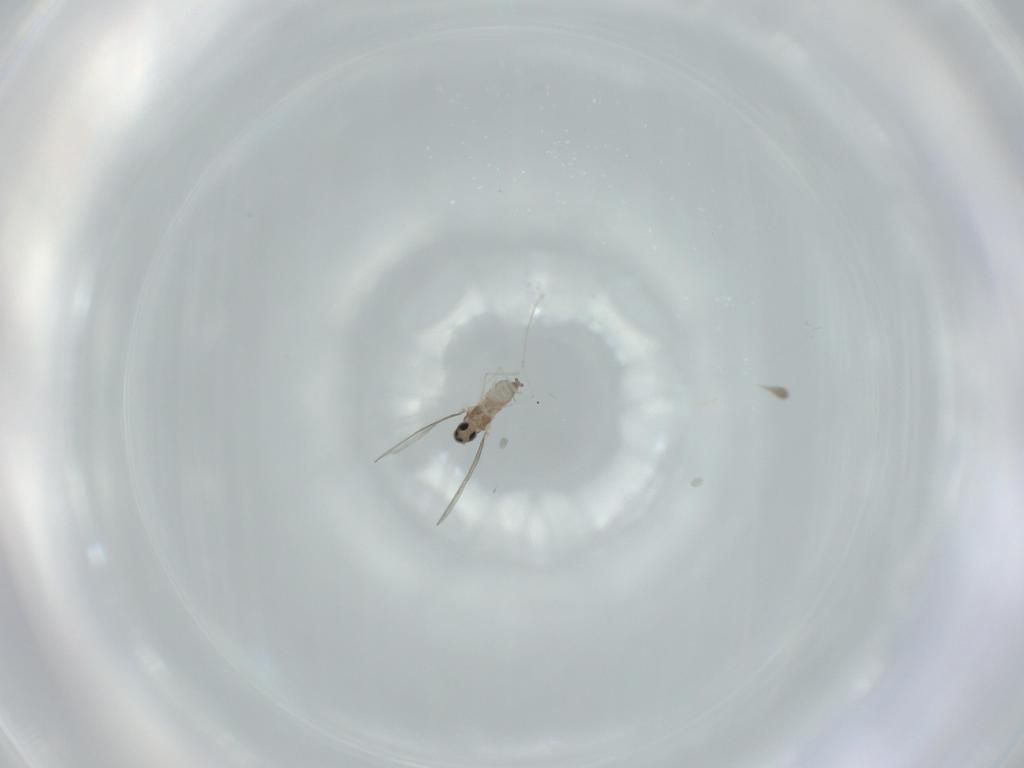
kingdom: Animalia
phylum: Arthropoda
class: Insecta
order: Diptera
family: Cecidomyiidae
